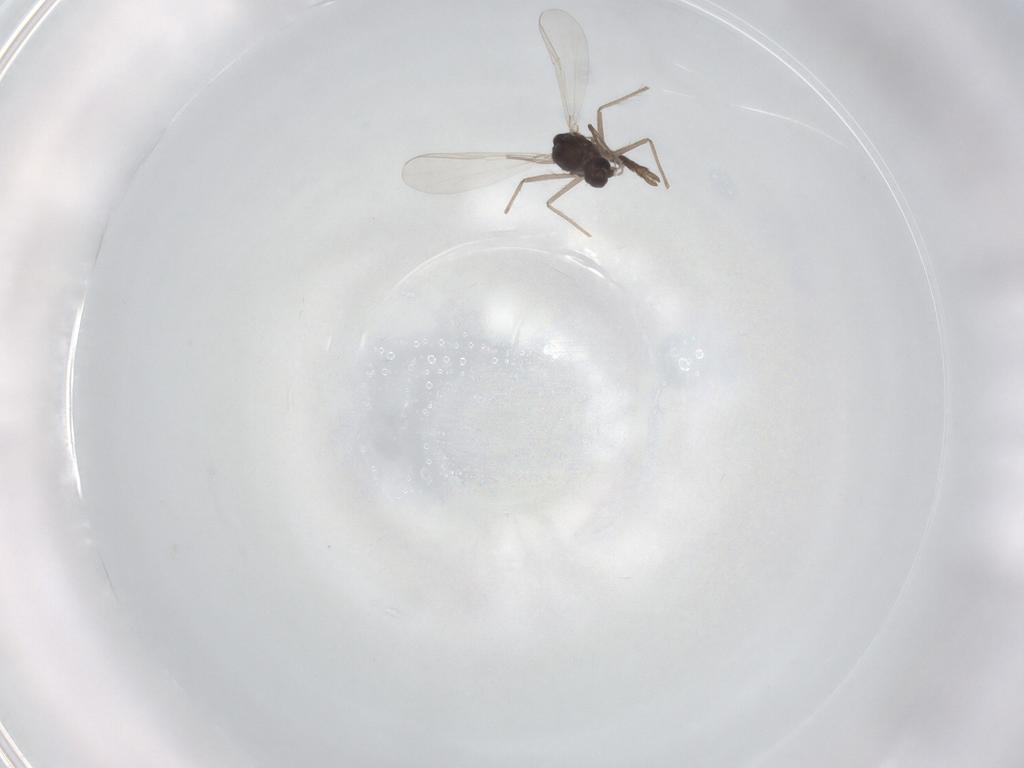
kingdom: Animalia
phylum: Arthropoda
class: Insecta
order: Diptera
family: Chironomidae
